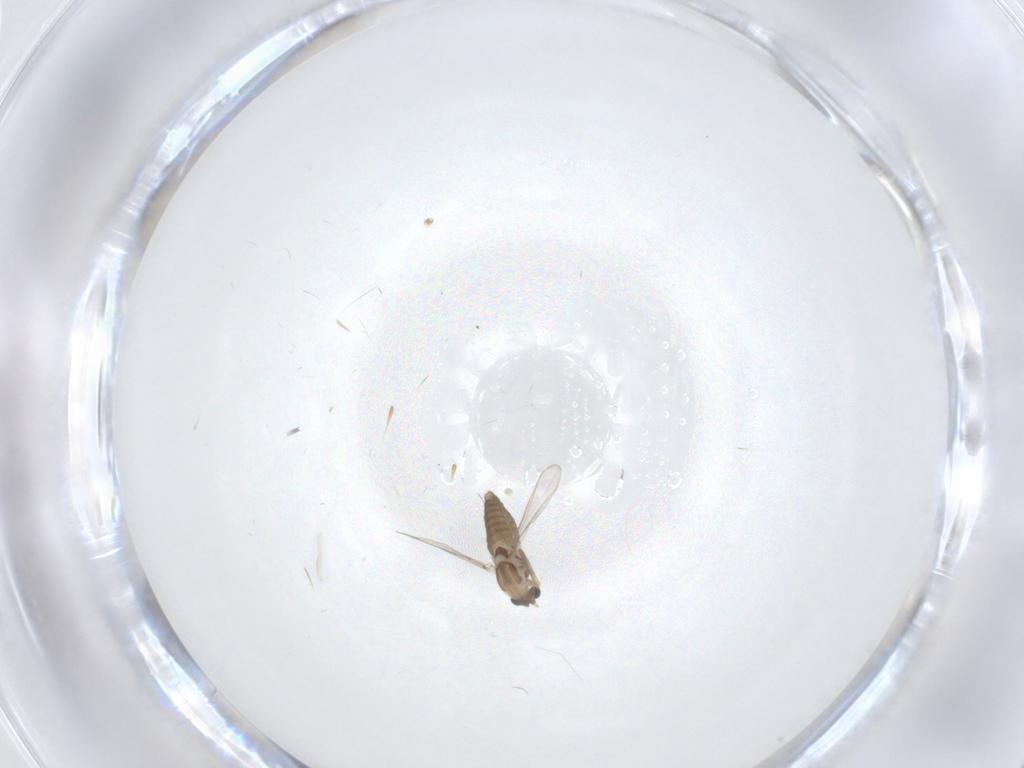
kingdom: Animalia
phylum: Arthropoda
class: Insecta
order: Diptera
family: Chironomidae
